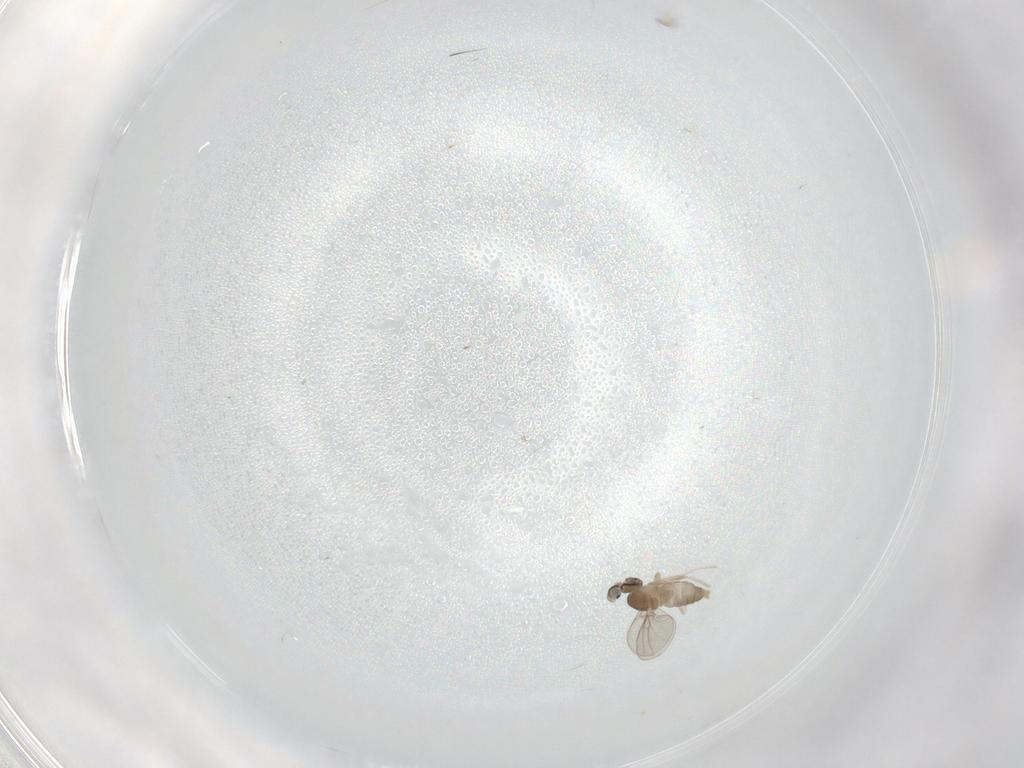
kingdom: Animalia
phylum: Arthropoda
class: Insecta
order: Diptera
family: Cecidomyiidae
